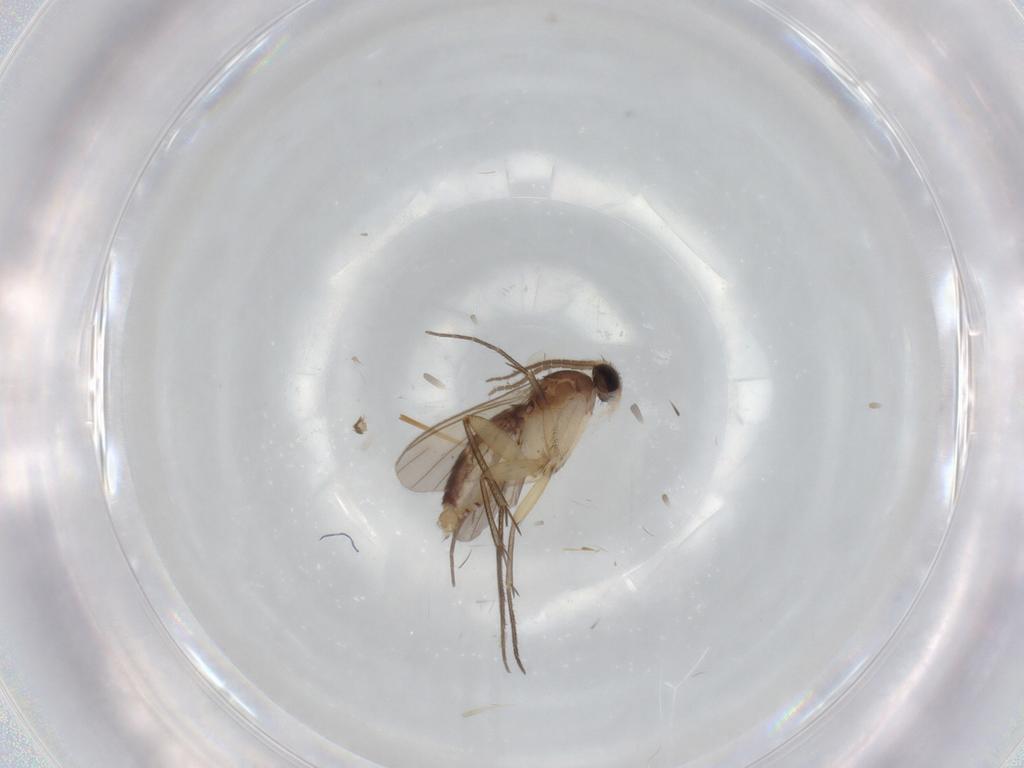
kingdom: Animalia
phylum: Arthropoda
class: Insecta
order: Diptera
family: Mycetophilidae
